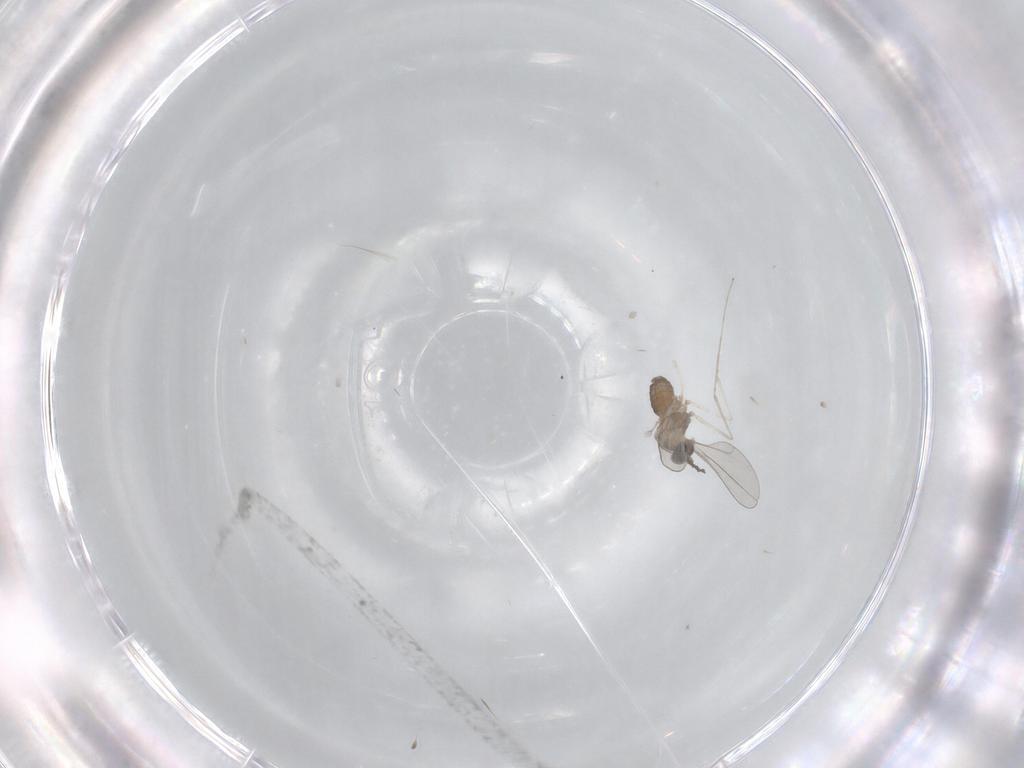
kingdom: Animalia
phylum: Arthropoda
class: Insecta
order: Diptera
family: Cecidomyiidae
